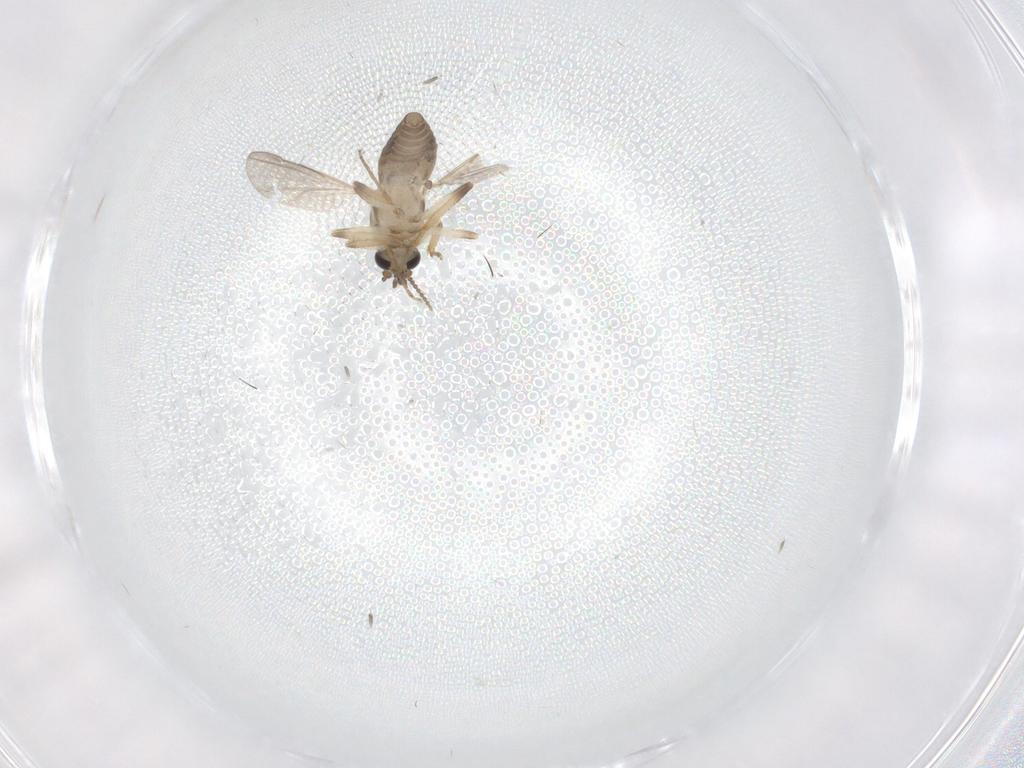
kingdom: Animalia
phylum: Arthropoda
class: Insecta
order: Diptera
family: Ceratopogonidae
